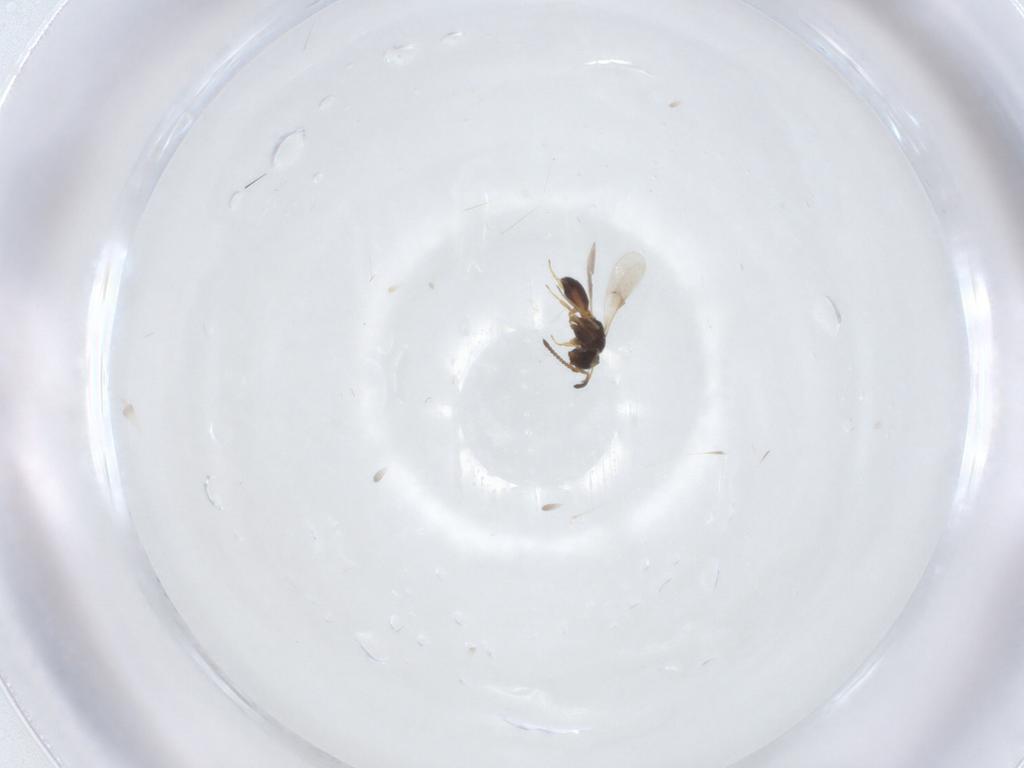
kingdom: Animalia
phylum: Arthropoda
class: Insecta
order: Hymenoptera
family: Scelionidae
